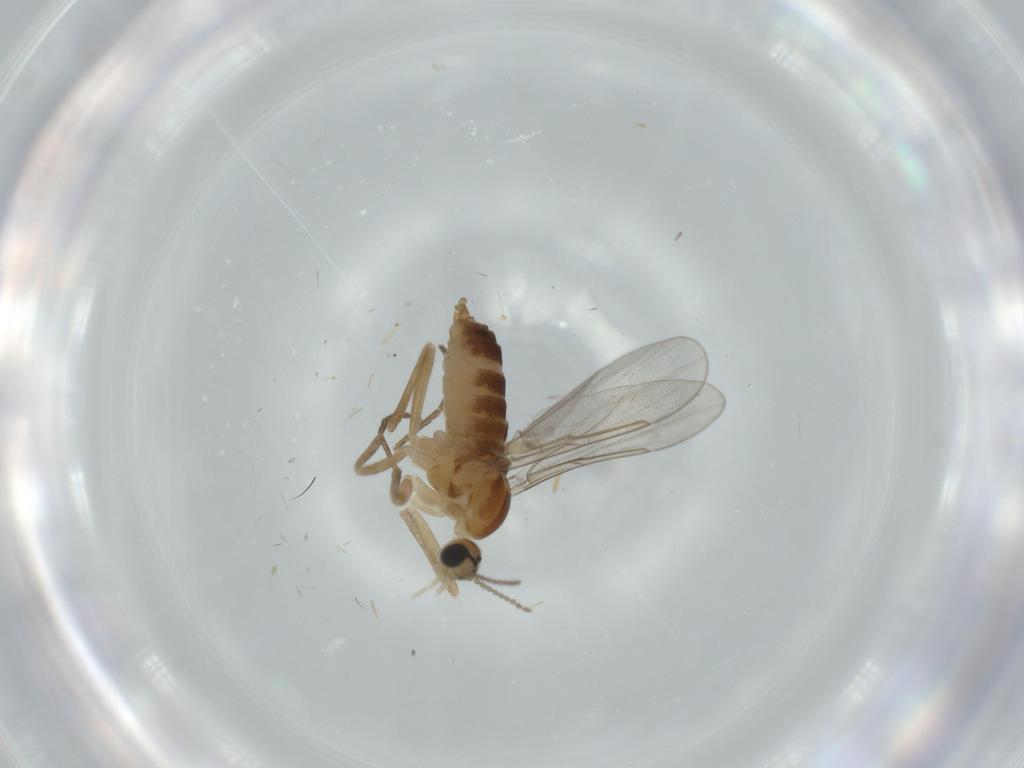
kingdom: Animalia
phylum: Arthropoda
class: Insecta
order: Diptera
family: Cecidomyiidae
